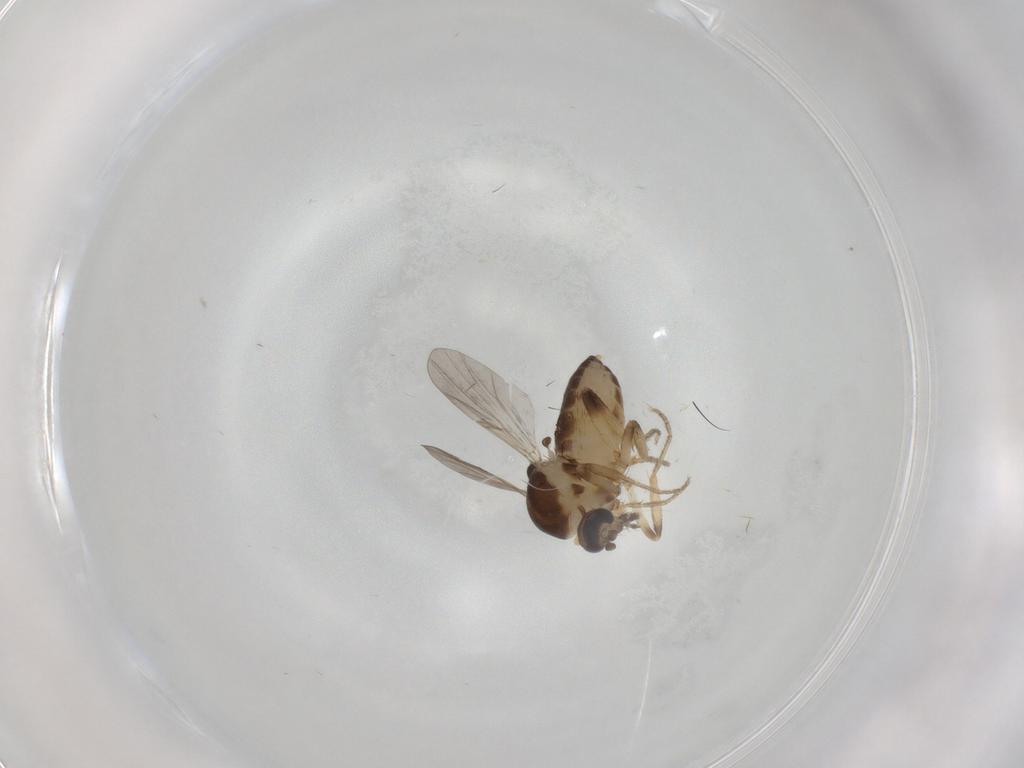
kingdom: Animalia
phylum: Arthropoda
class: Insecta
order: Diptera
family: Ceratopogonidae
